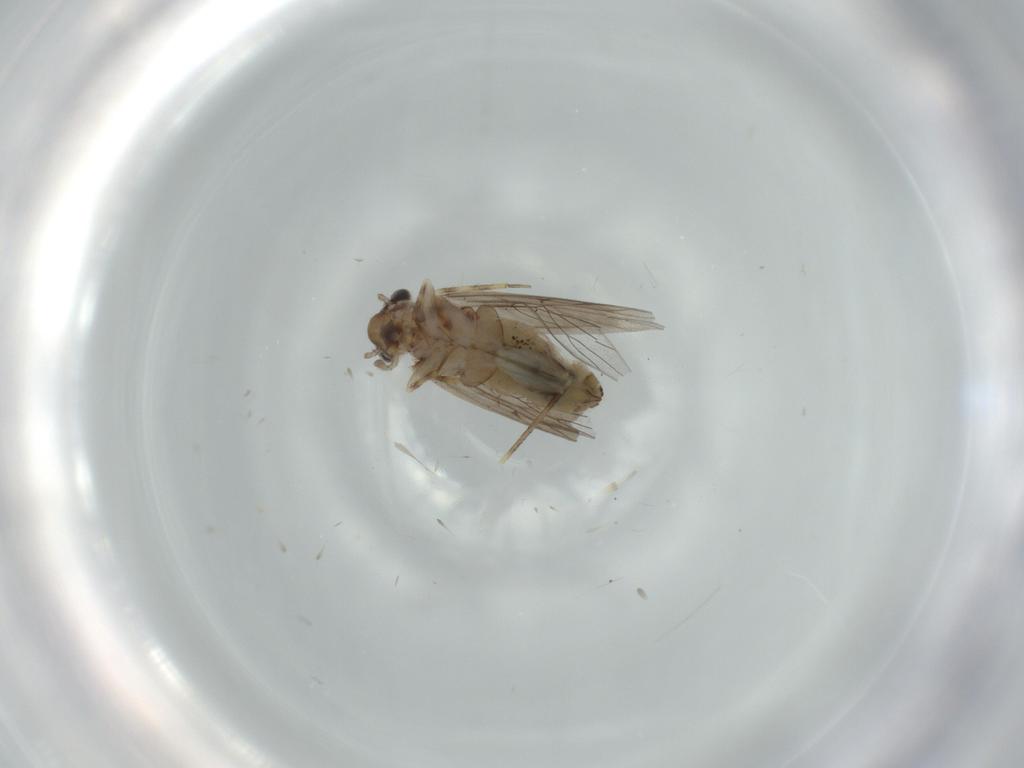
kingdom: Animalia
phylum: Arthropoda
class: Insecta
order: Psocodea
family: Lepidopsocidae
